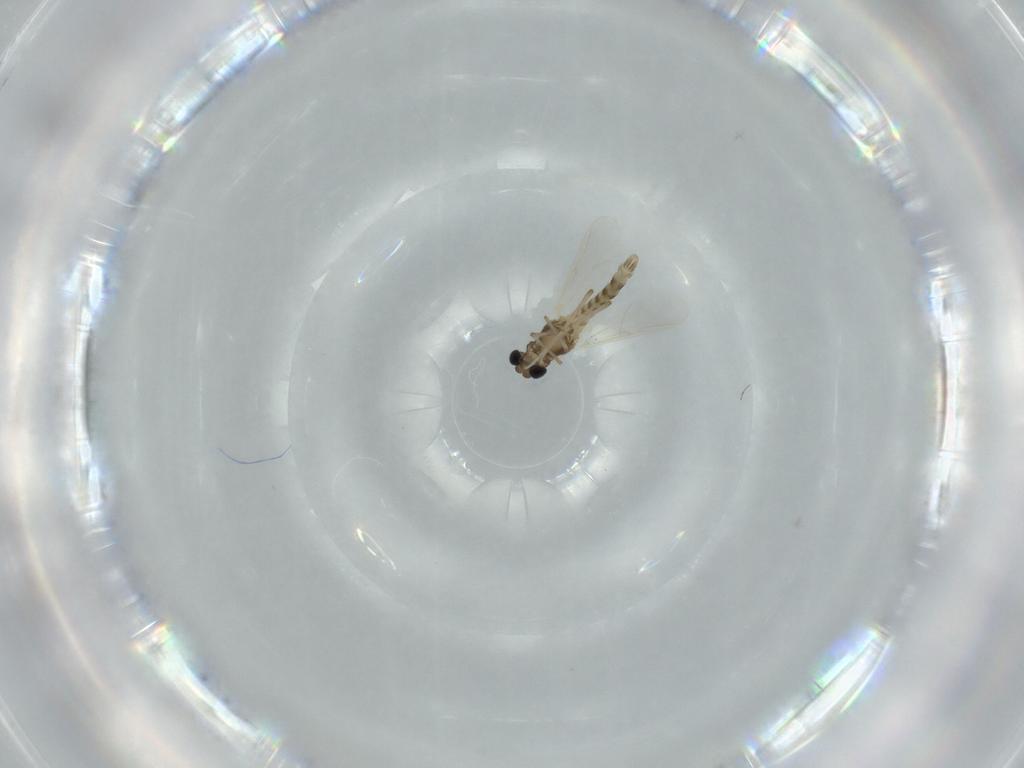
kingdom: Animalia
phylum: Arthropoda
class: Insecta
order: Diptera
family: Chironomidae
